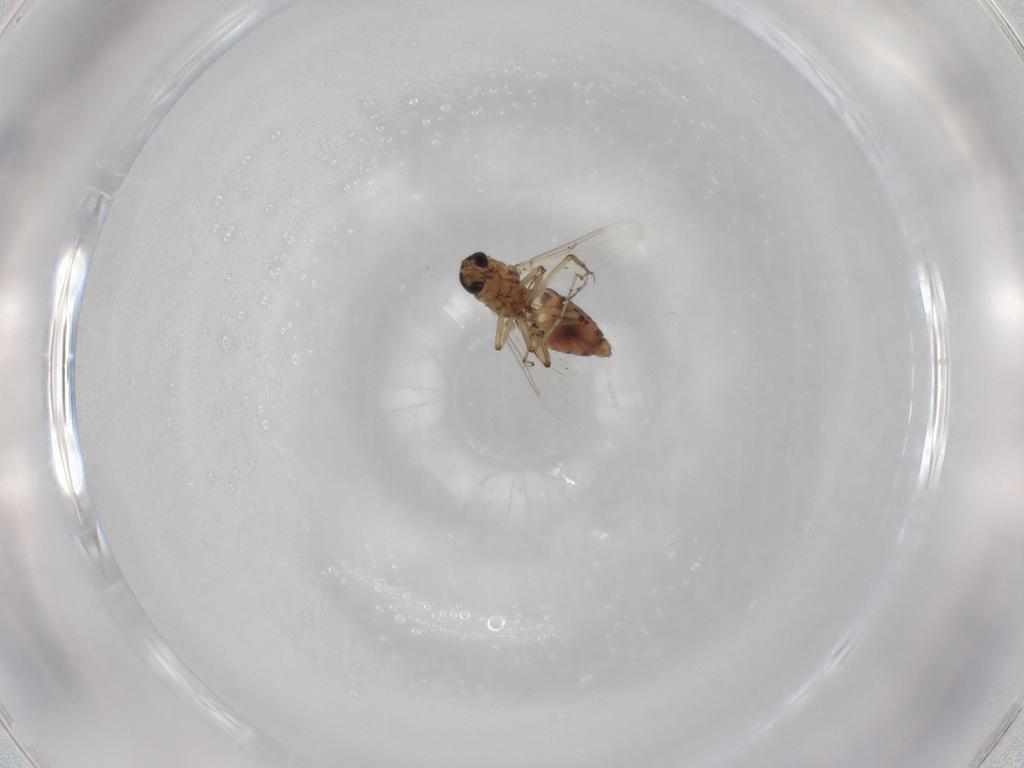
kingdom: Animalia
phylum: Arthropoda
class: Insecta
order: Diptera
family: Ceratopogonidae
